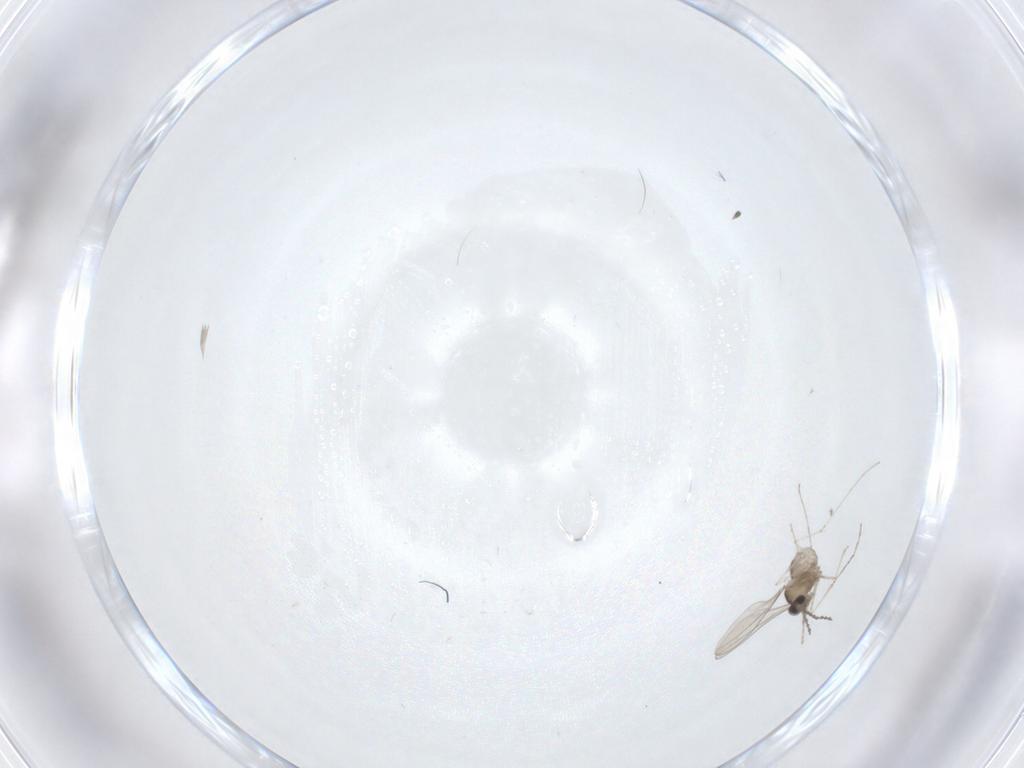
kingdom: Animalia
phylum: Arthropoda
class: Insecta
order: Diptera
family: Cecidomyiidae
